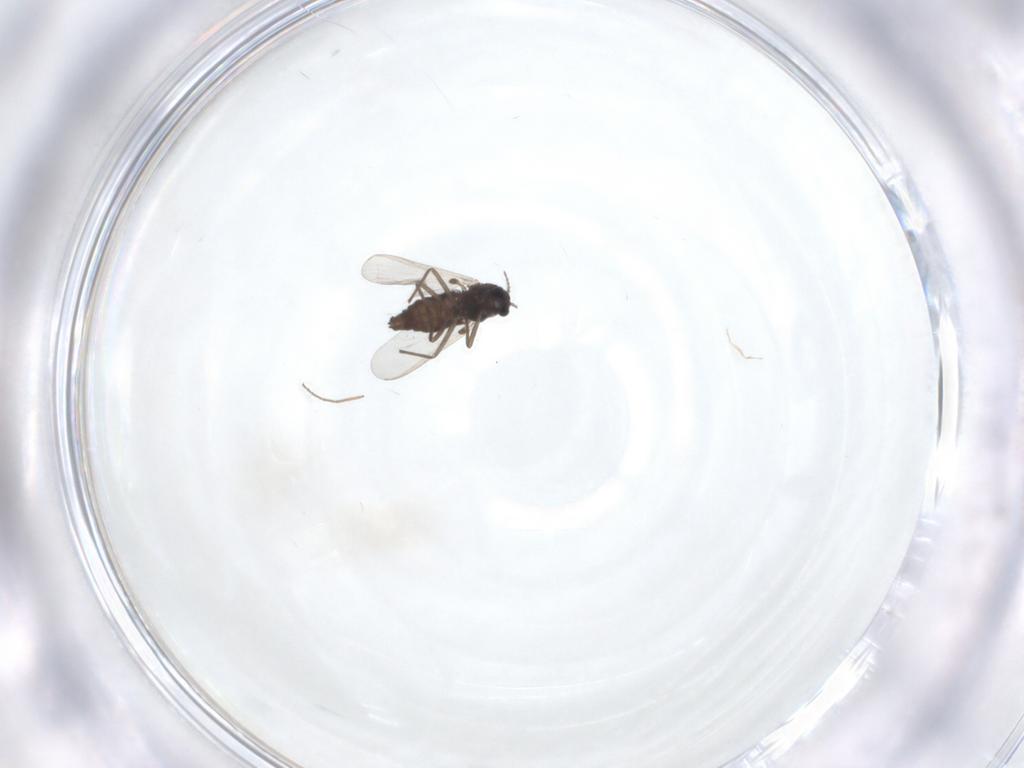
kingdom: Animalia
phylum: Arthropoda
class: Insecta
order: Diptera
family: Chironomidae
